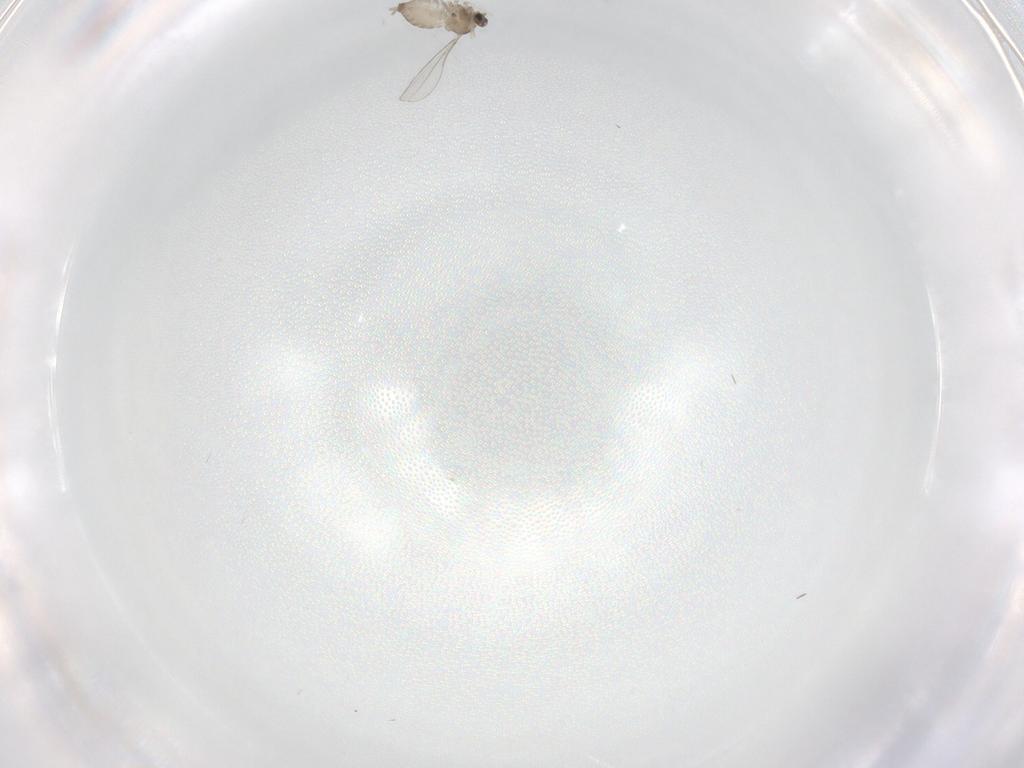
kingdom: Animalia
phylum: Arthropoda
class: Insecta
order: Diptera
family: Cecidomyiidae
